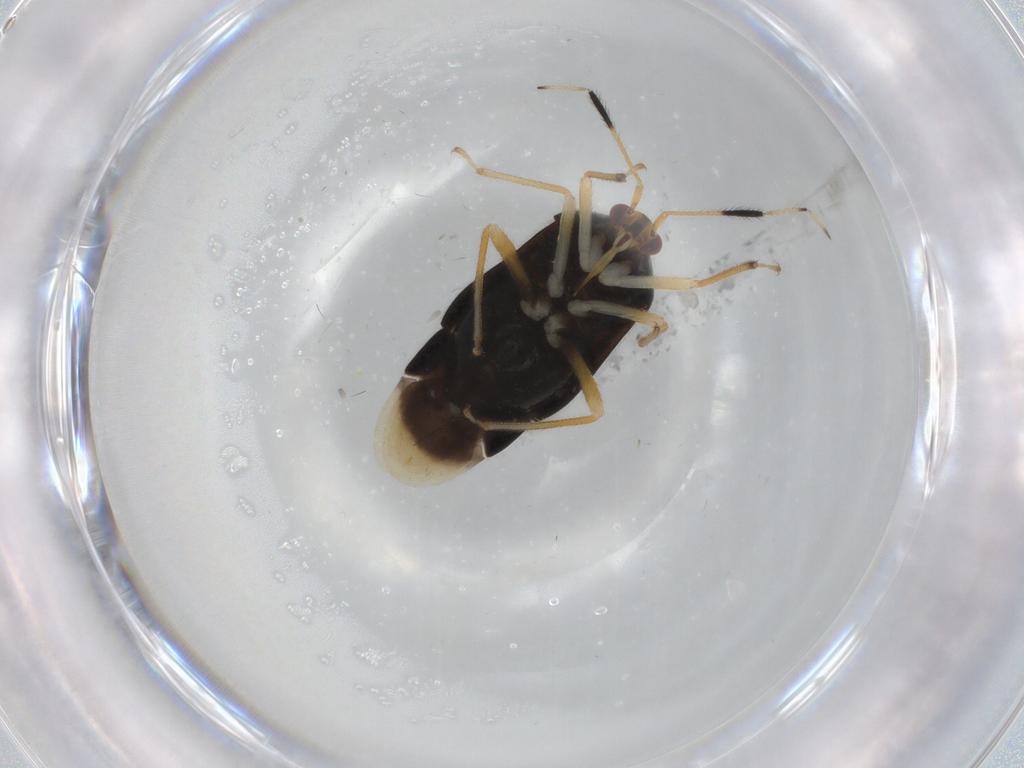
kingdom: Animalia
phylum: Arthropoda
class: Insecta
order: Hemiptera
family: Miridae
